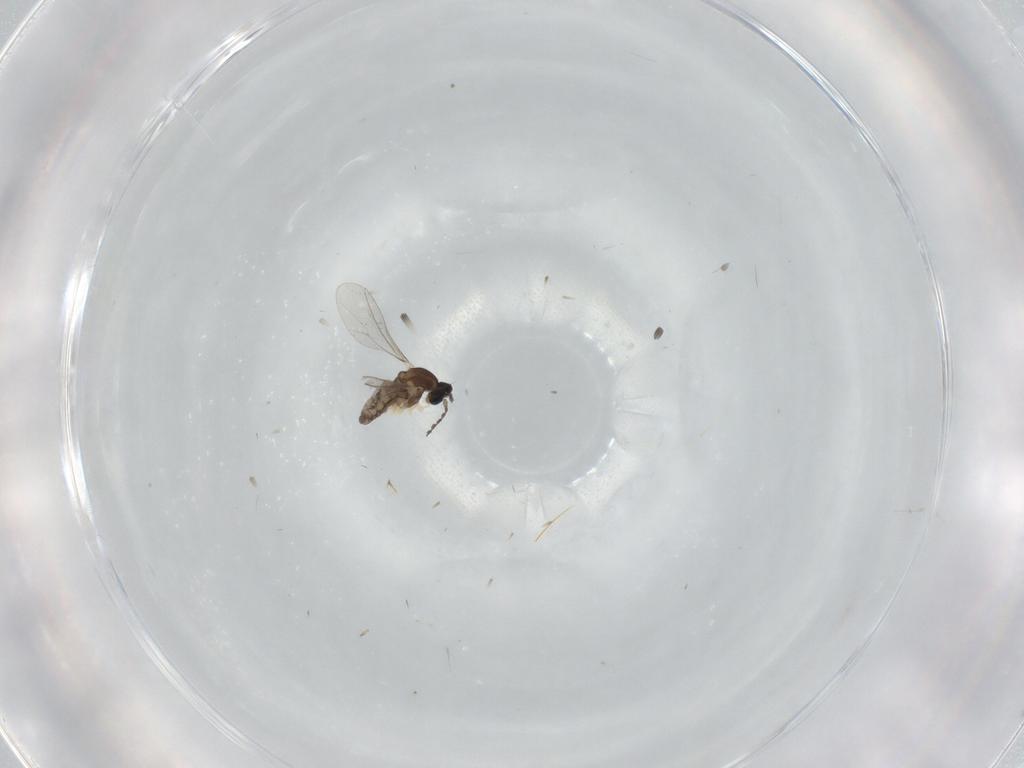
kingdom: Animalia
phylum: Arthropoda
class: Insecta
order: Diptera
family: Cecidomyiidae
